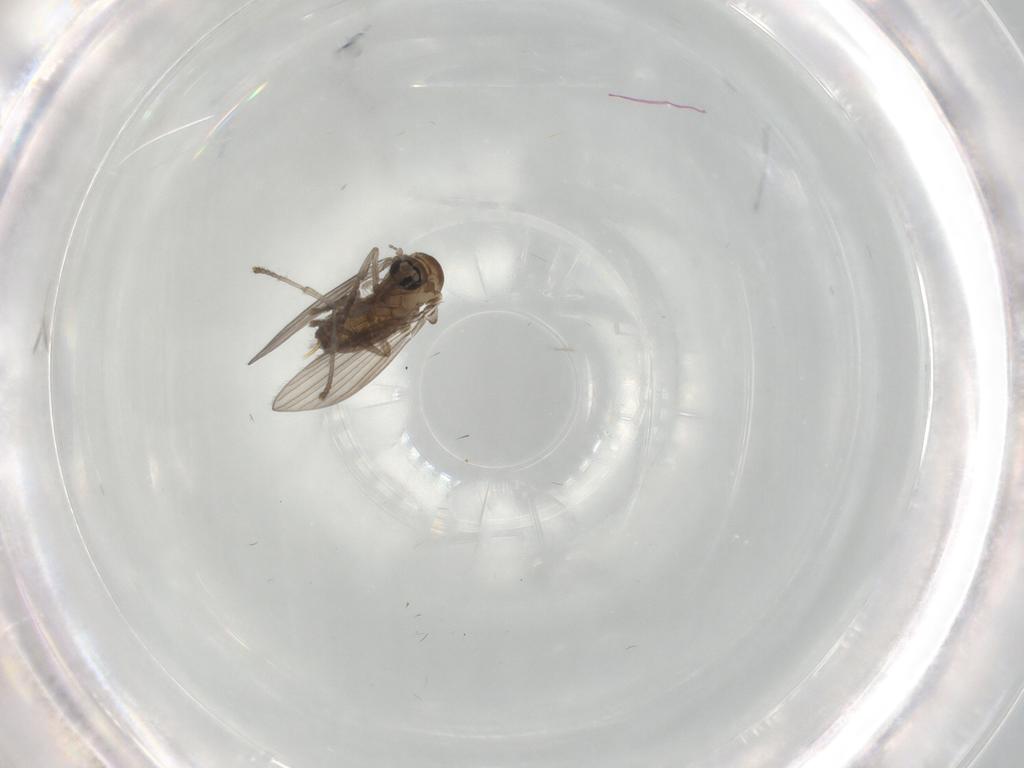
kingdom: Animalia
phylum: Arthropoda
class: Insecta
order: Diptera
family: Psychodidae
